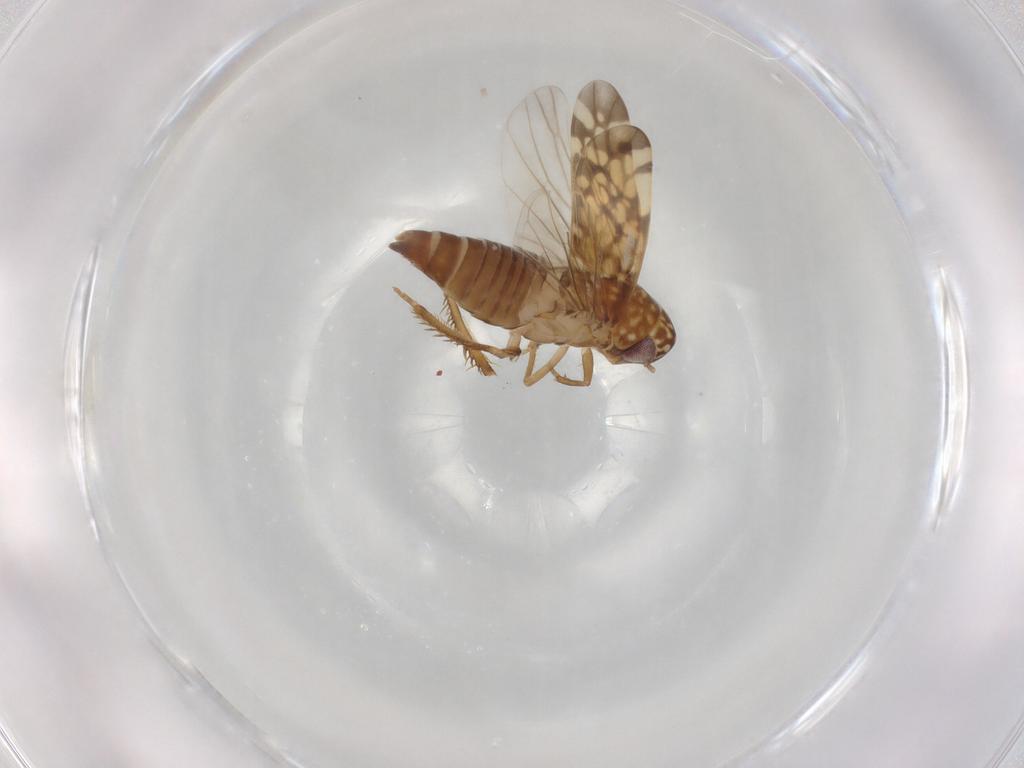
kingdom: Animalia
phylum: Arthropoda
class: Insecta
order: Hemiptera
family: Cicadellidae
